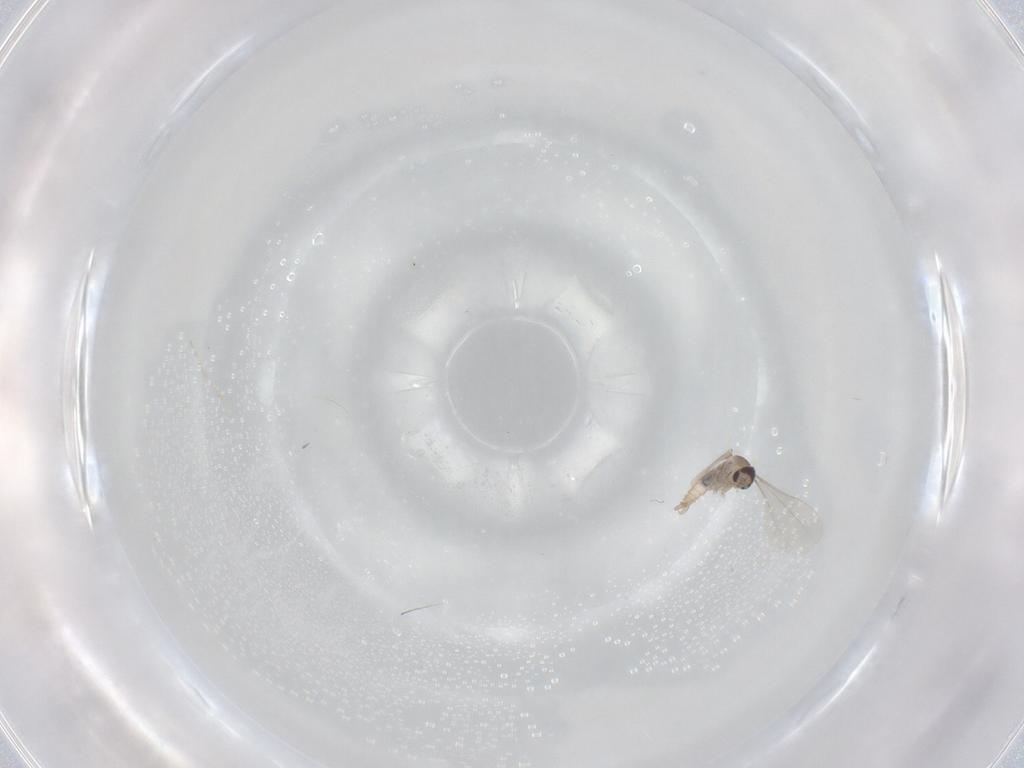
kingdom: Animalia
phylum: Arthropoda
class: Insecta
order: Diptera
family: Cecidomyiidae
